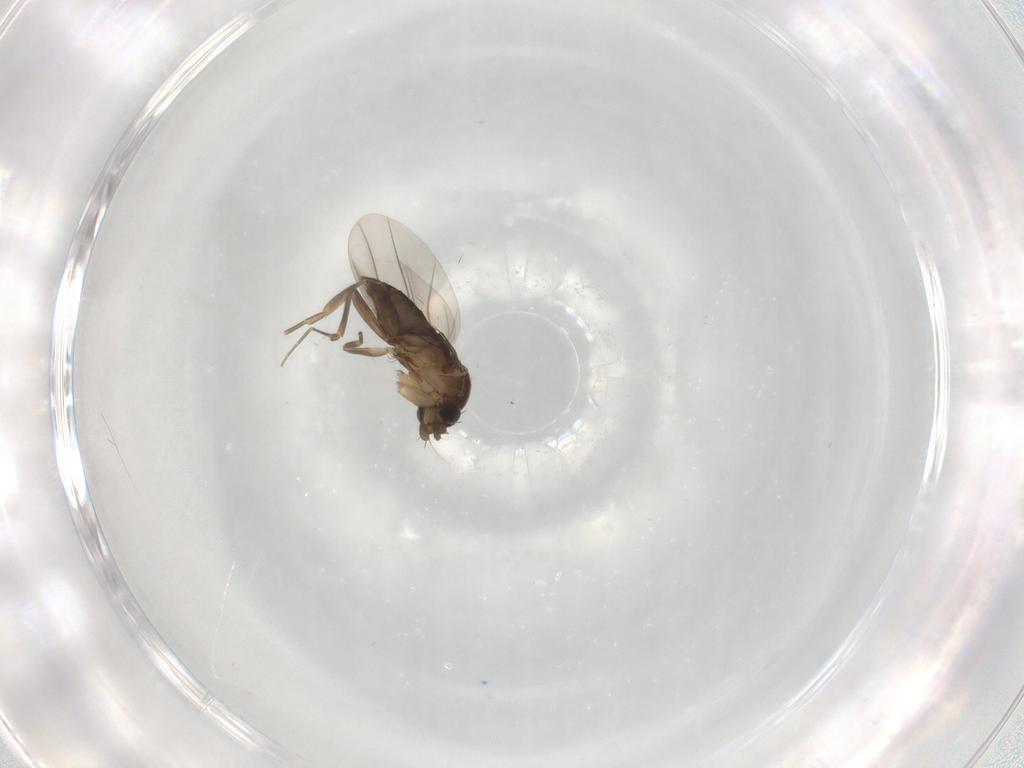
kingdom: Animalia
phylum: Arthropoda
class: Insecta
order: Diptera
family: Phoridae
